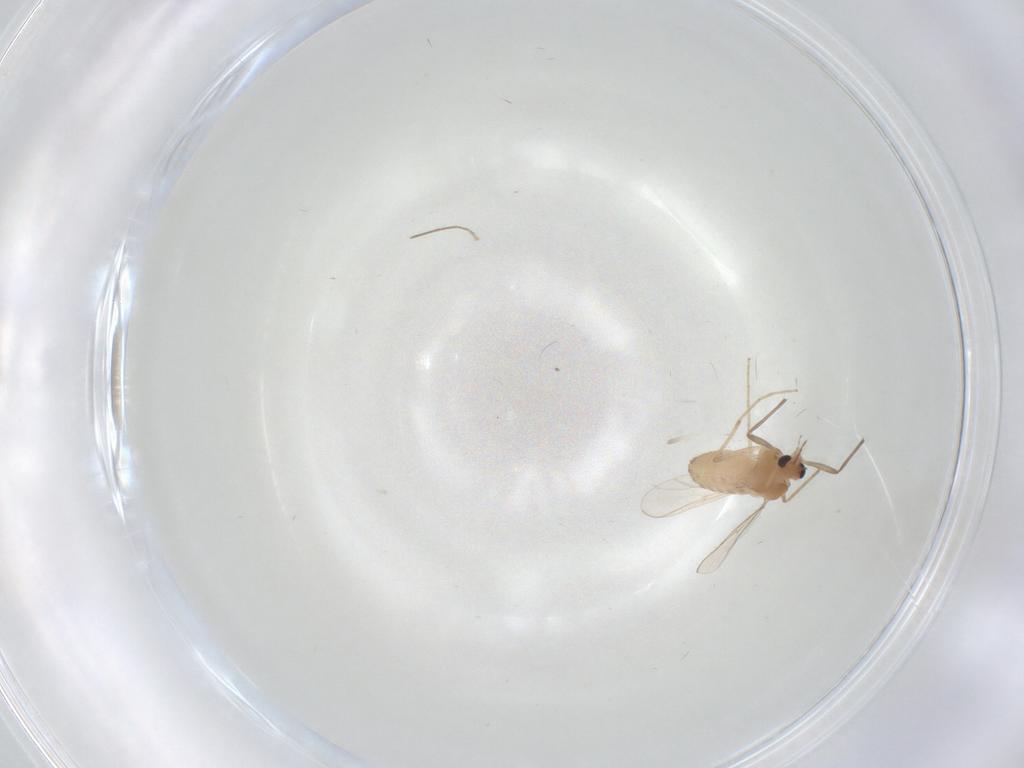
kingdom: Animalia
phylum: Arthropoda
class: Insecta
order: Diptera
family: Chironomidae
